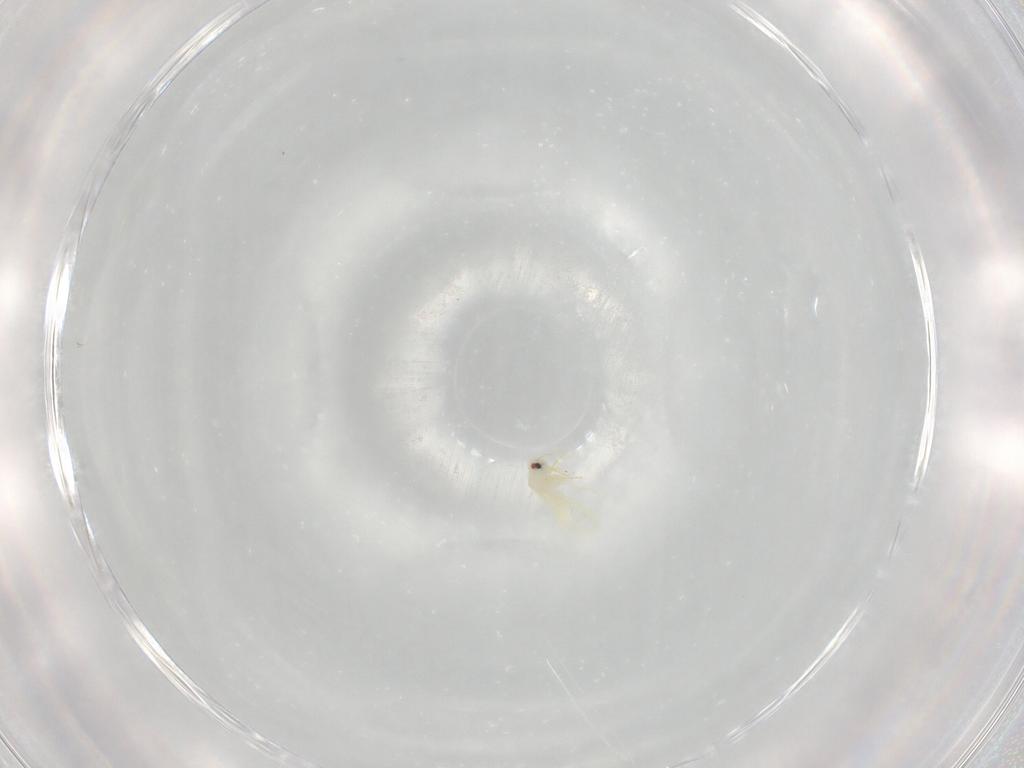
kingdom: Animalia
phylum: Arthropoda
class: Insecta
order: Hemiptera
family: Aleyrodidae
